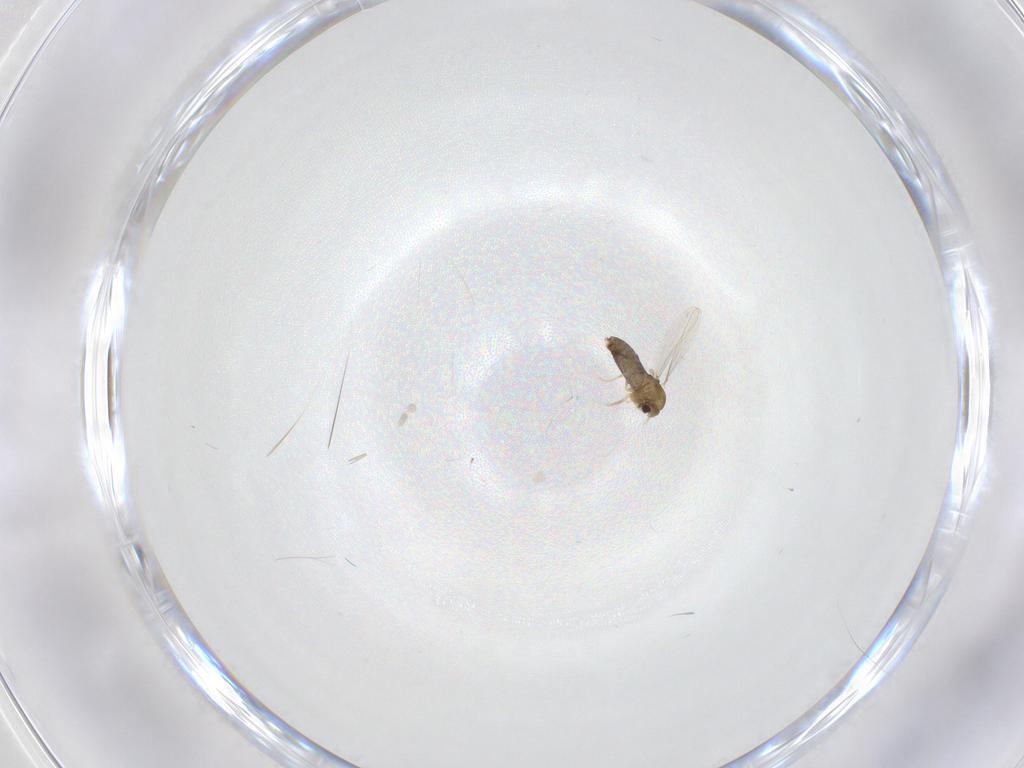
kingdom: Animalia
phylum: Arthropoda
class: Insecta
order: Diptera
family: Chironomidae
